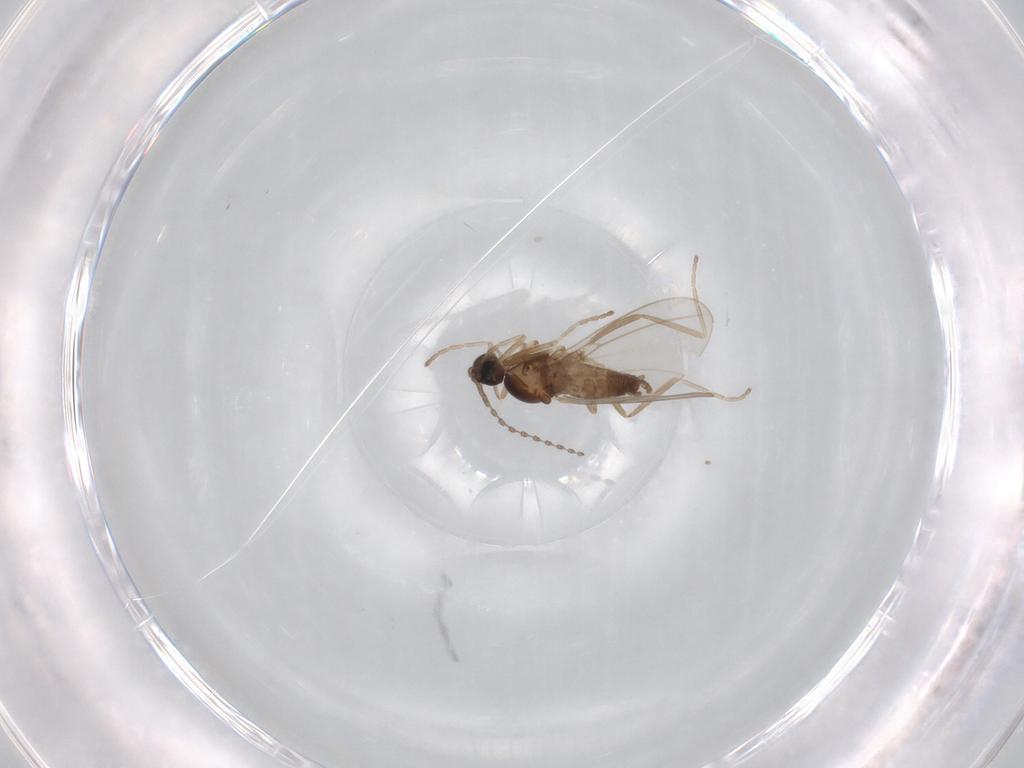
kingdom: Animalia
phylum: Arthropoda
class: Insecta
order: Diptera
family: Cecidomyiidae
